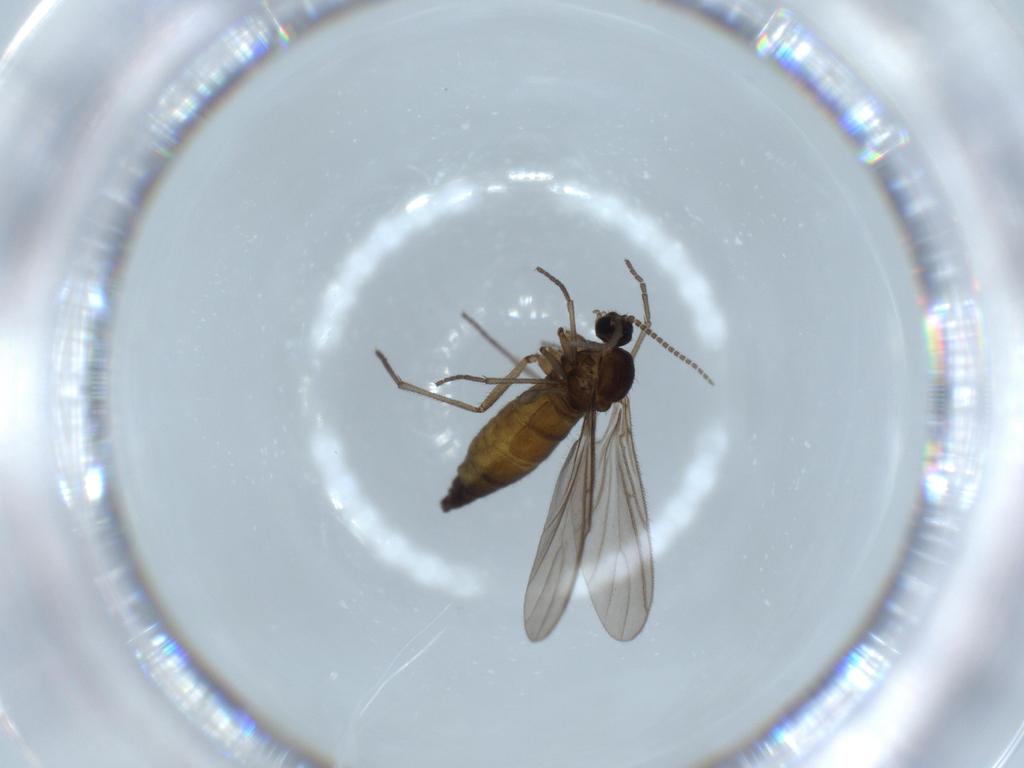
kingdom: Animalia
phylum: Arthropoda
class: Insecta
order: Diptera
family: Sciaridae
